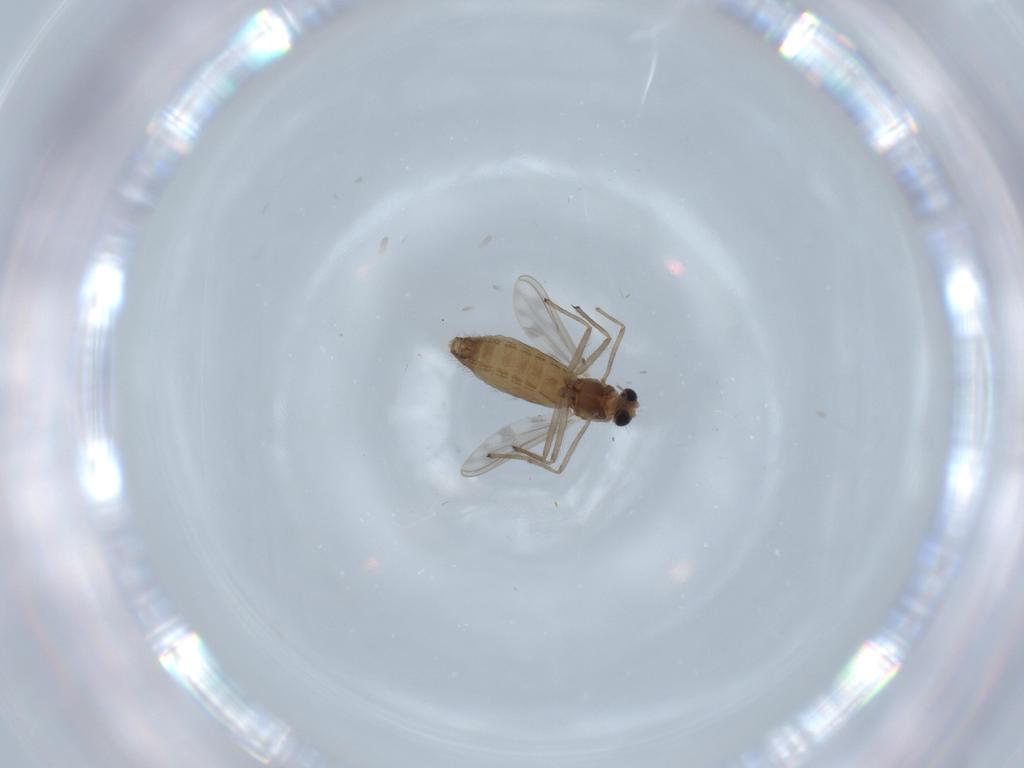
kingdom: Animalia
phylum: Arthropoda
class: Insecta
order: Diptera
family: Chironomidae
